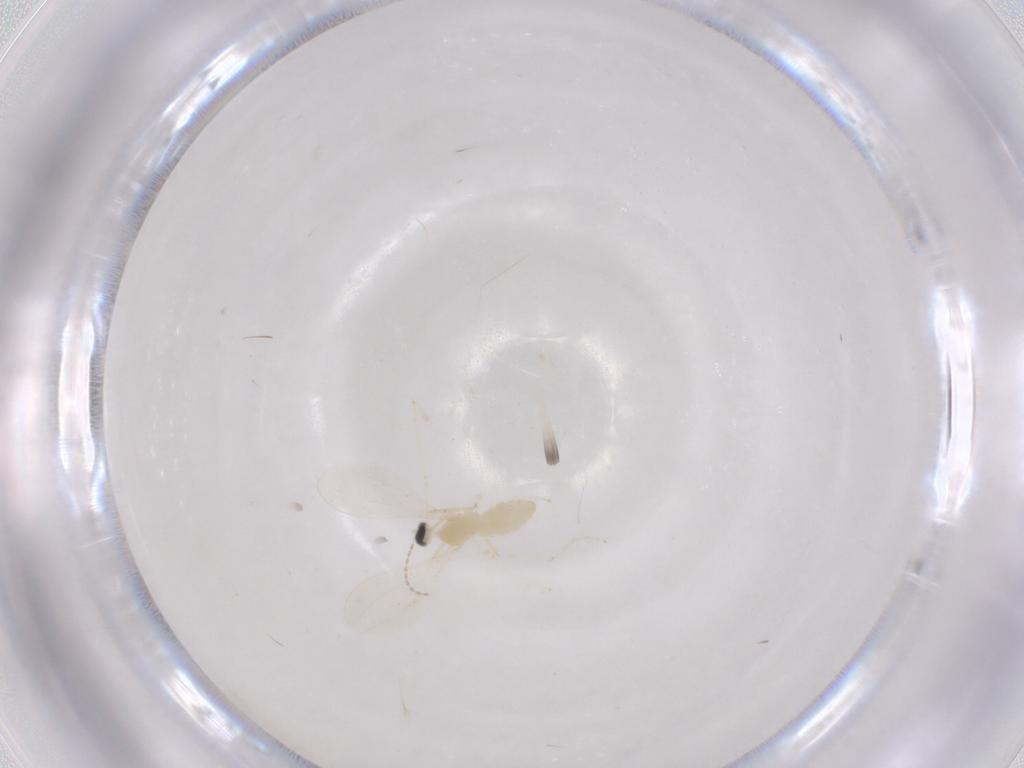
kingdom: Animalia
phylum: Arthropoda
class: Insecta
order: Diptera
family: Cecidomyiidae
